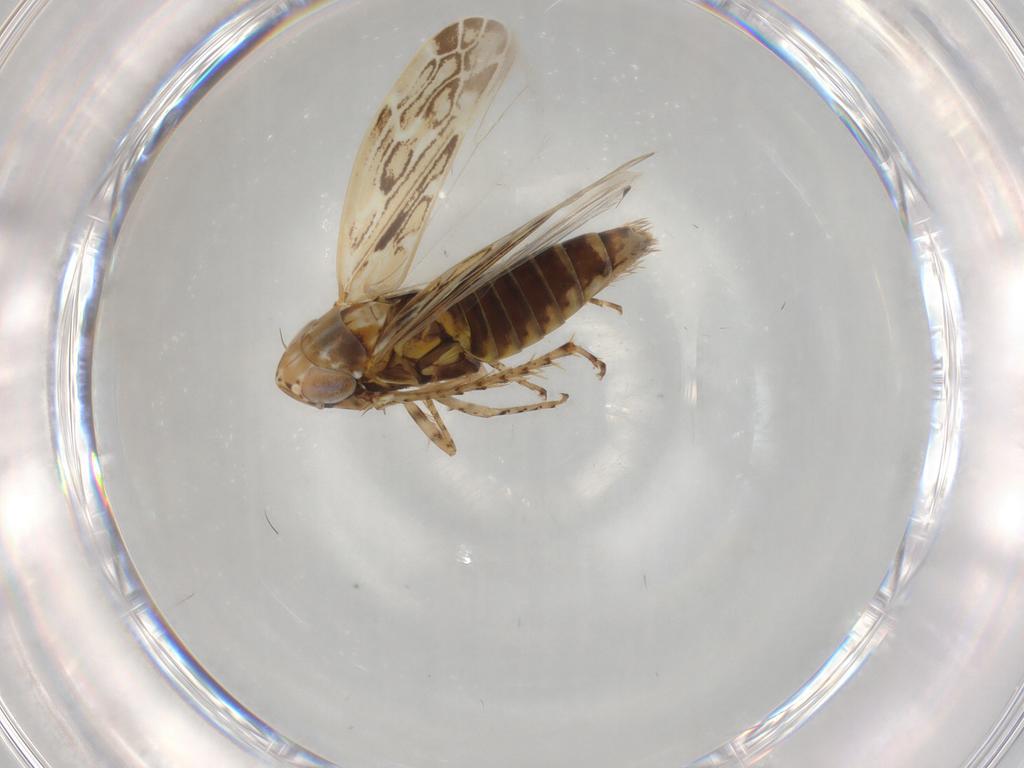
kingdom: Animalia
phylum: Arthropoda
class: Insecta
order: Hemiptera
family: Cicadellidae
